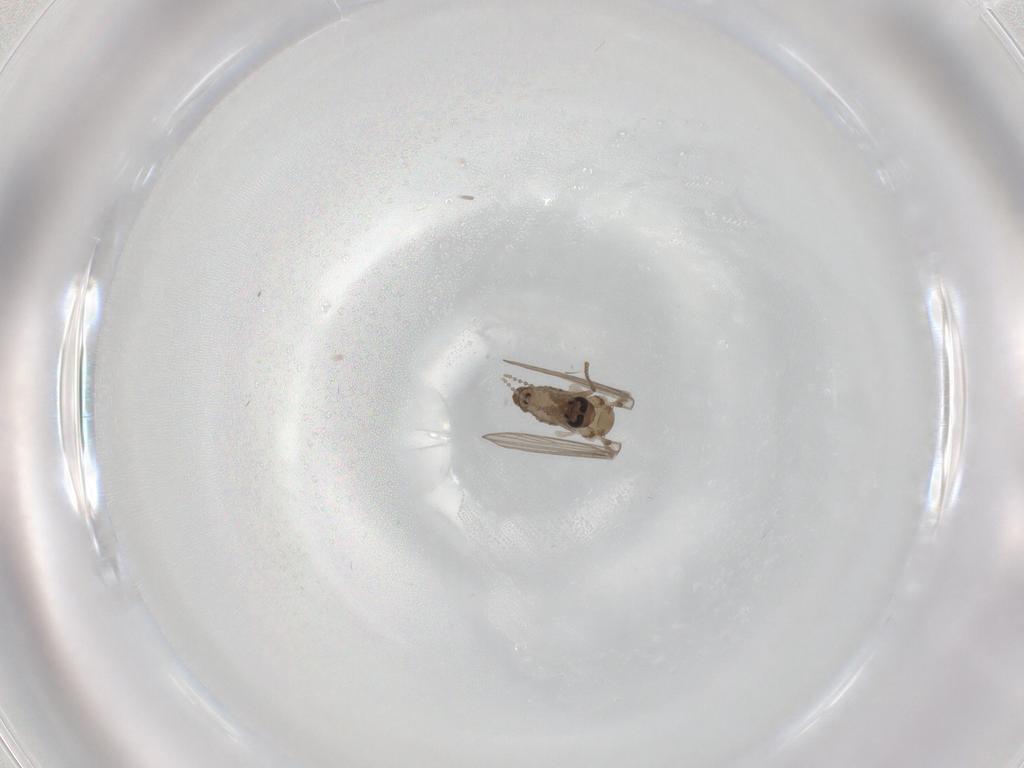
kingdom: Animalia
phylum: Arthropoda
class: Insecta
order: Diptera
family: Psychodidae
